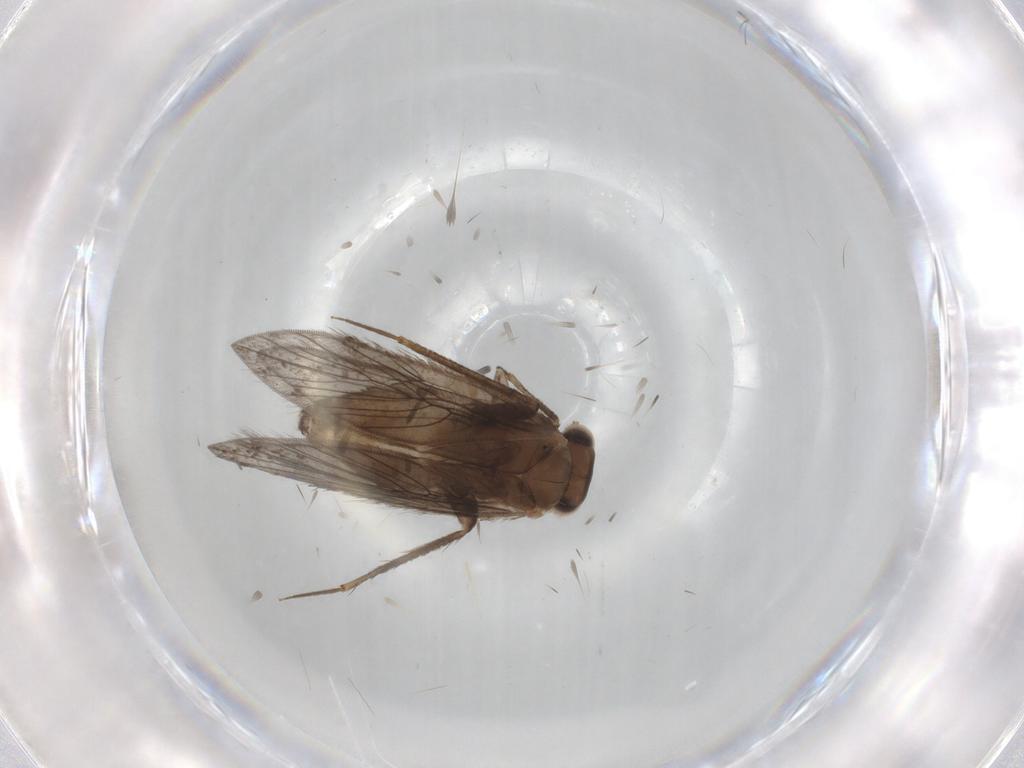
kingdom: Animalia
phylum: Arthropoda
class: Insecta
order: Psocodea
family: Lepidopsocidae
